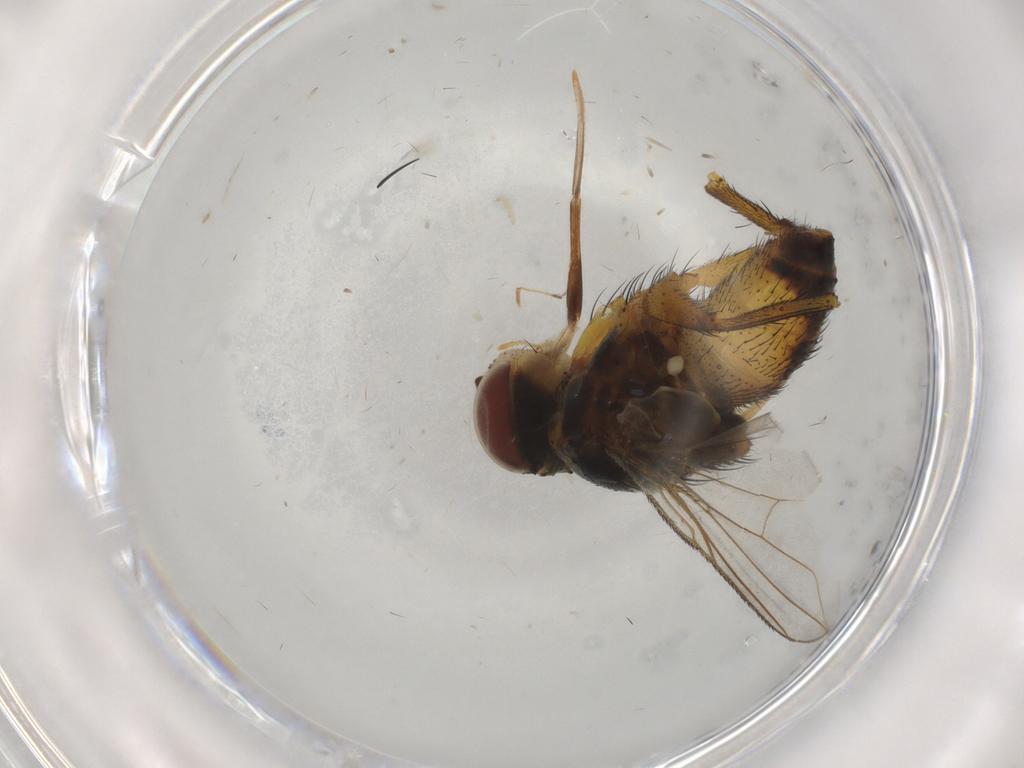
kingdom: Animalia
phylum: Arthropoda
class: Insecta
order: Diptera
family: Tachinidae
